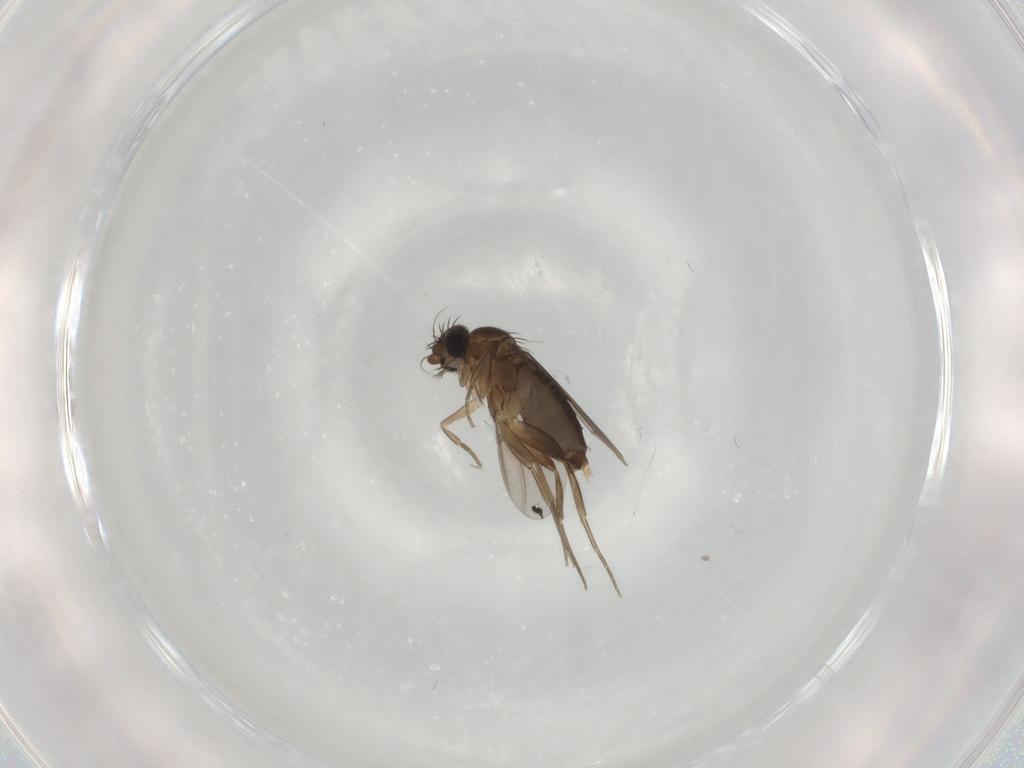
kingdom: Animalia
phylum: Arthropoda
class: Insecta
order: Diptera
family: Phoridae
